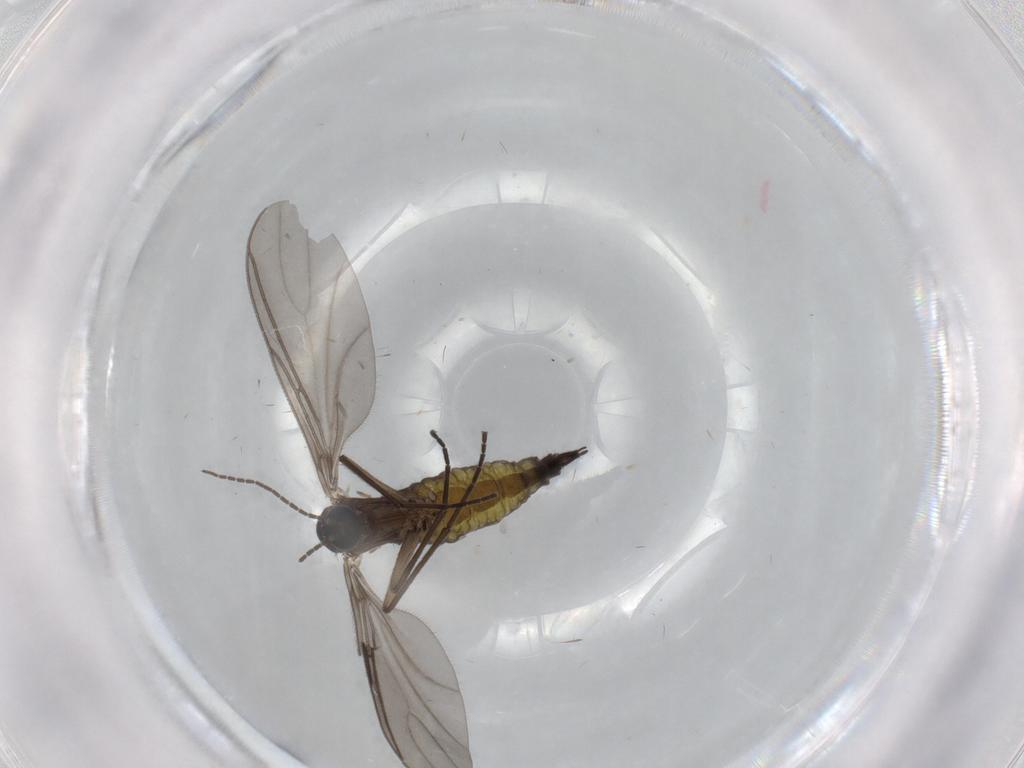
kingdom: Animalia
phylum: Arthropoda
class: Insecta
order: Diptera
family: Sciaridae
